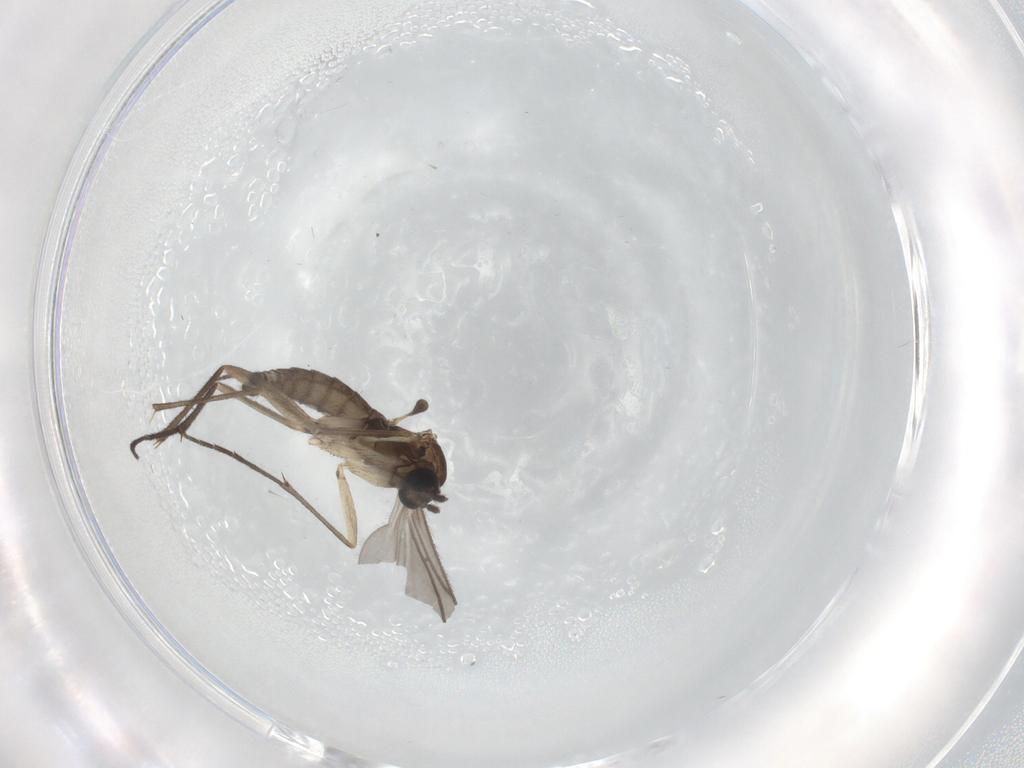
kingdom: Animalia
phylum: Arthropoda
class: Insecta
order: Diptera
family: Sciaridae
